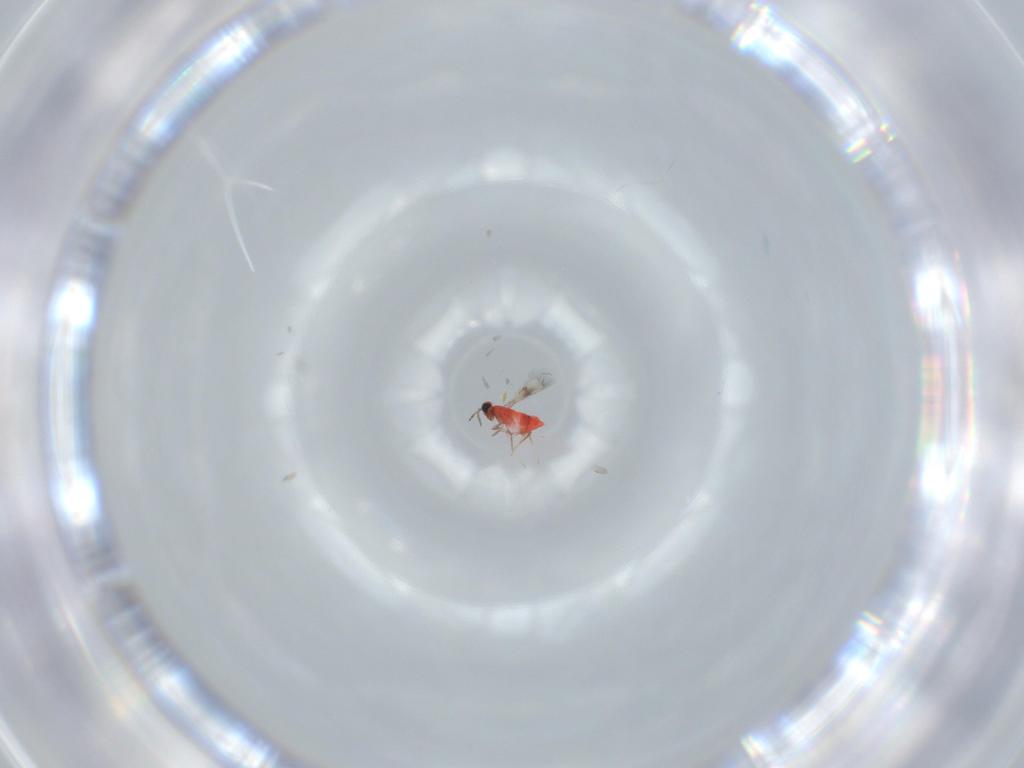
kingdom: Animalia
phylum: Arthropoda
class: Insecta
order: Hymenoptera
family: Trichogrammatidae
